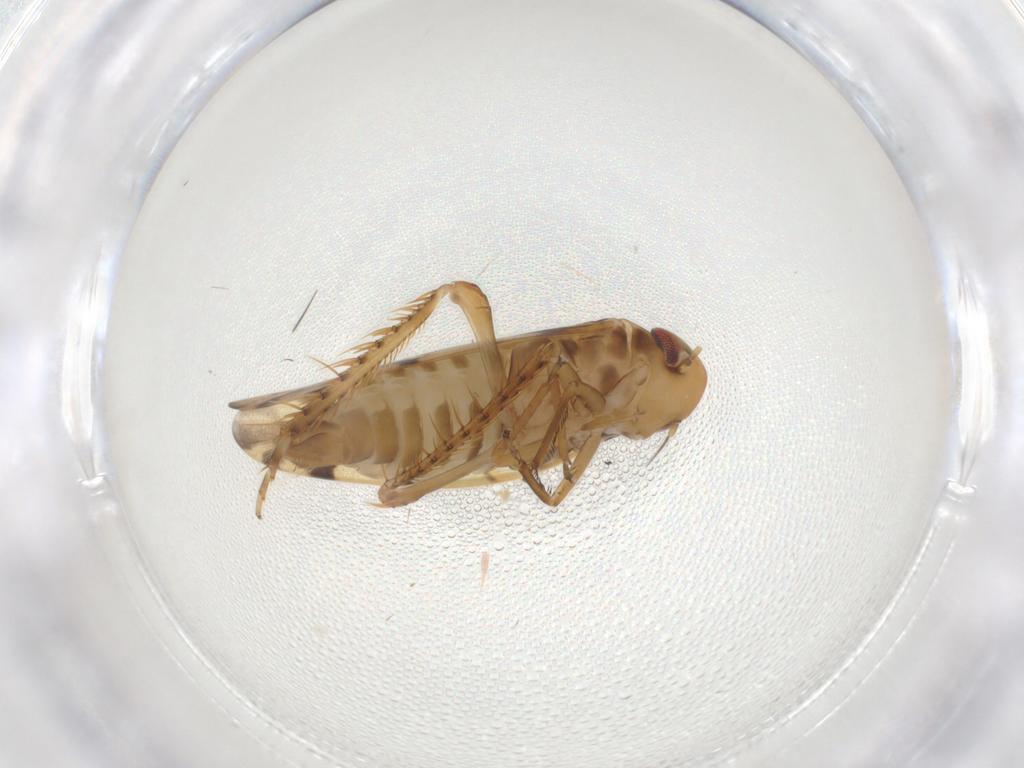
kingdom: Animalia
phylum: Arthropoda
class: Insecta
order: Hemiptera
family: Cicadellidae
